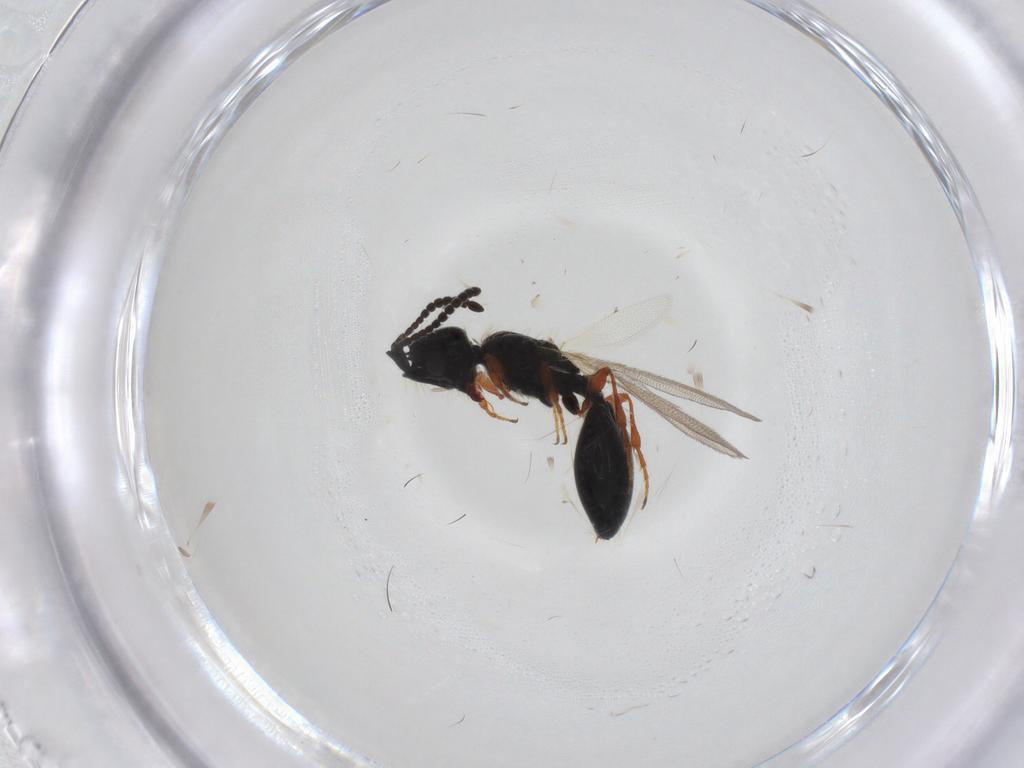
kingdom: Animalia
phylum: Arthropoda
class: Insecta
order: Hymenoptera
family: Diapriidae
